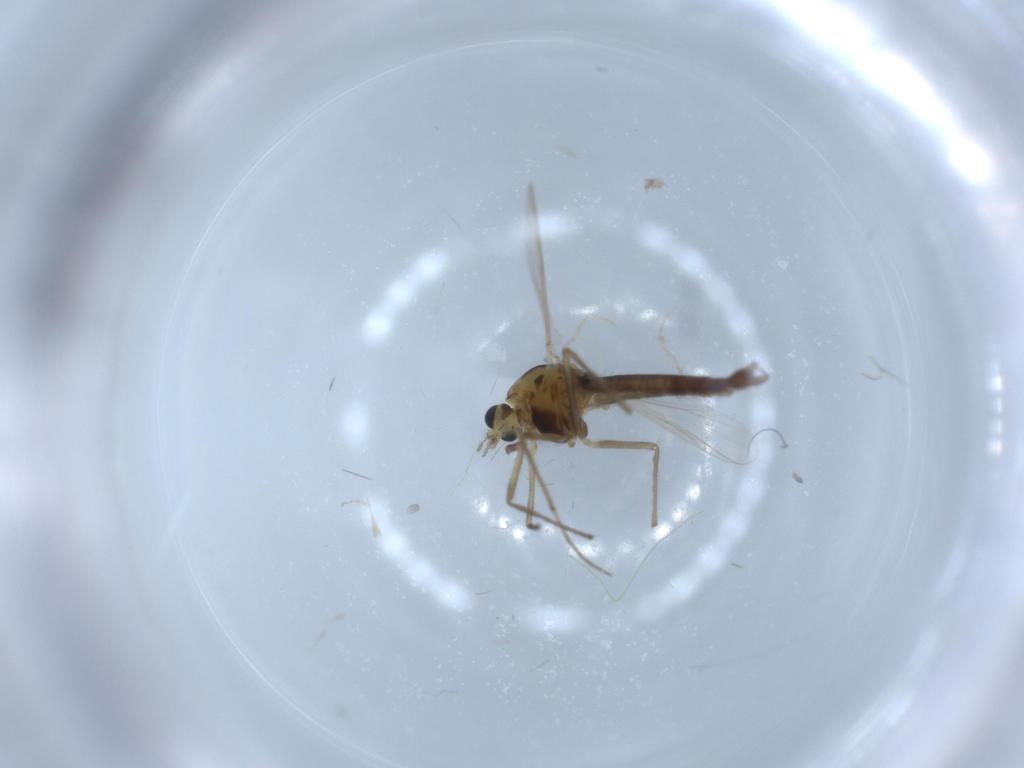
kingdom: Animalia
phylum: Arthropoda
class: Insecta
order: Diptera
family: Chironomidae
